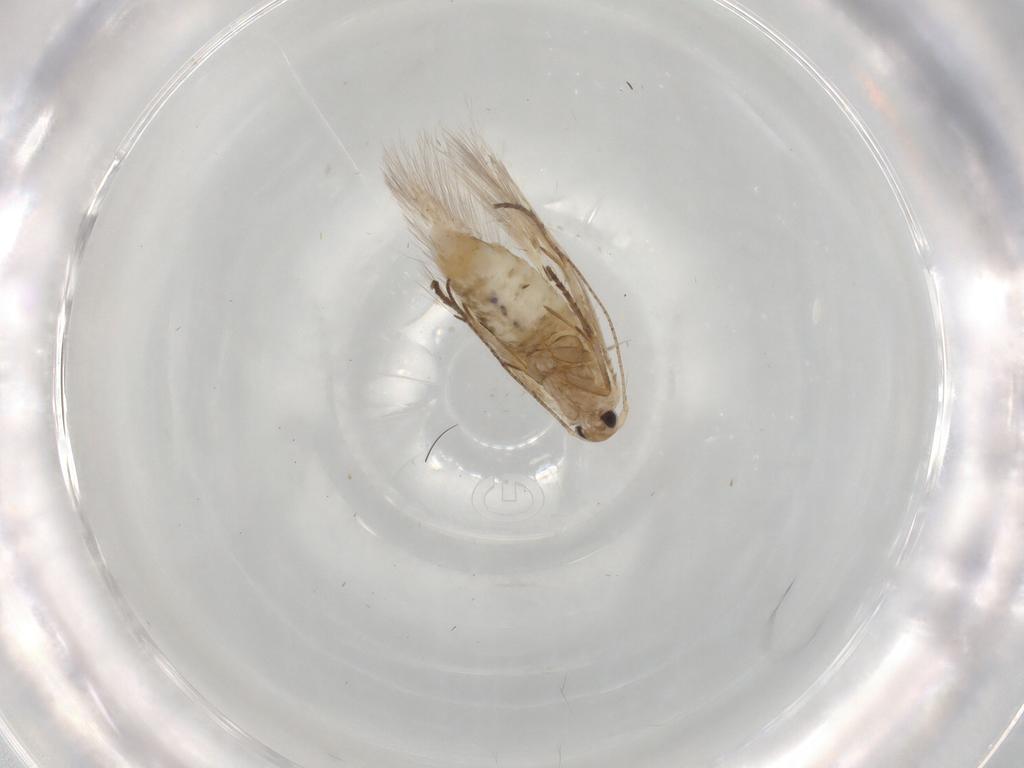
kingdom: Animalia
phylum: Arthropoda
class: Insecta
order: Lepidoptera
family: Bucculatricidae
